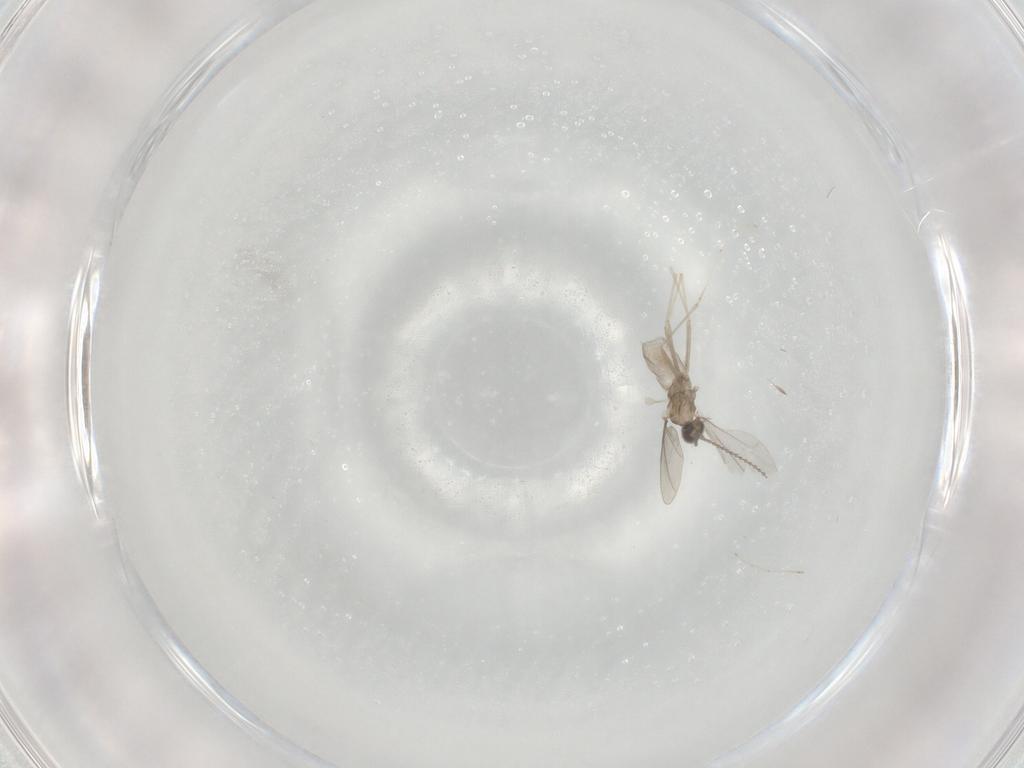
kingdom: Animalia
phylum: Arthropoda
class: Insecta
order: Diptera
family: Cecidomyiidae
